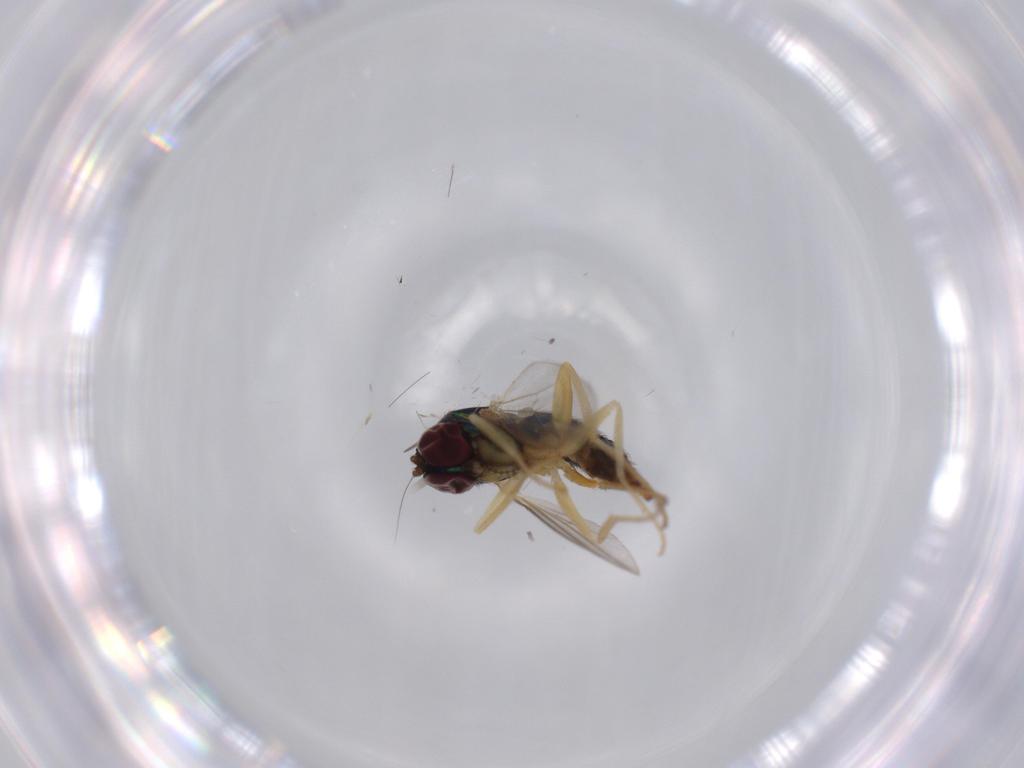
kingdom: Animalia
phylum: Arthropoda
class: Insecta
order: Diptera
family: Dolichopodidae
